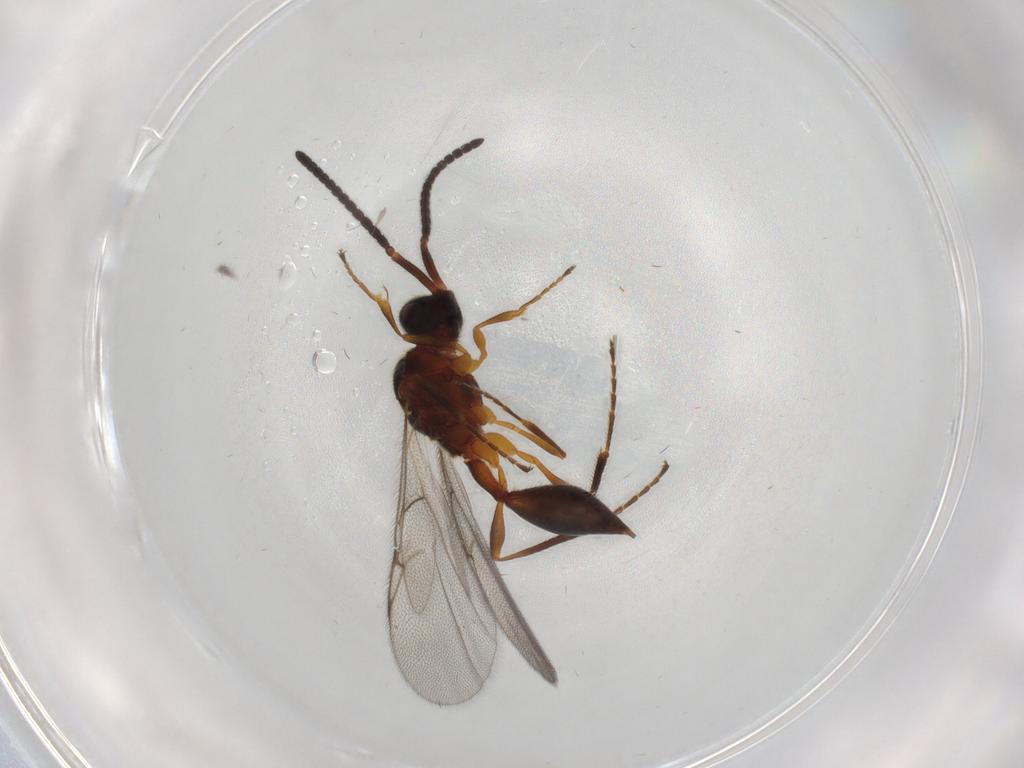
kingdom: Animalia
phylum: Arthropoda
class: Insecta
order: Hymenoptera
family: Diapriidae
